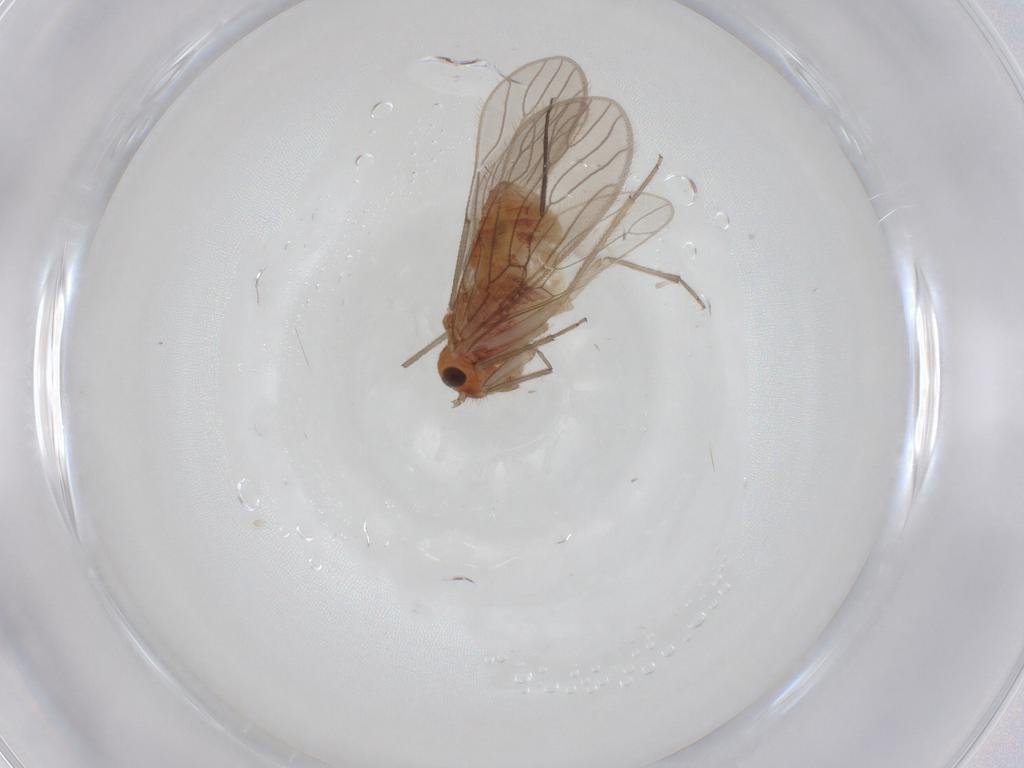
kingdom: Animalia
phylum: Arthropoda
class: Insecta
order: Psocodea
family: Epipsocidae
